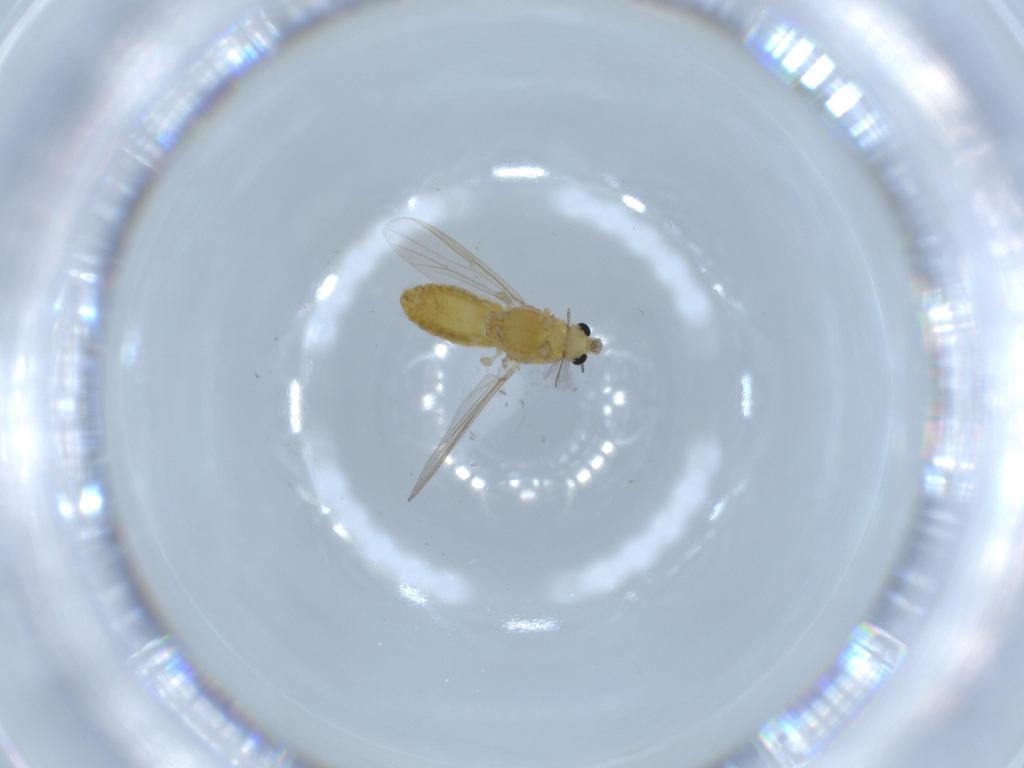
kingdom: Animalia
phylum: Arthropoda
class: Insecta
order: Diptera
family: Chironomidae
